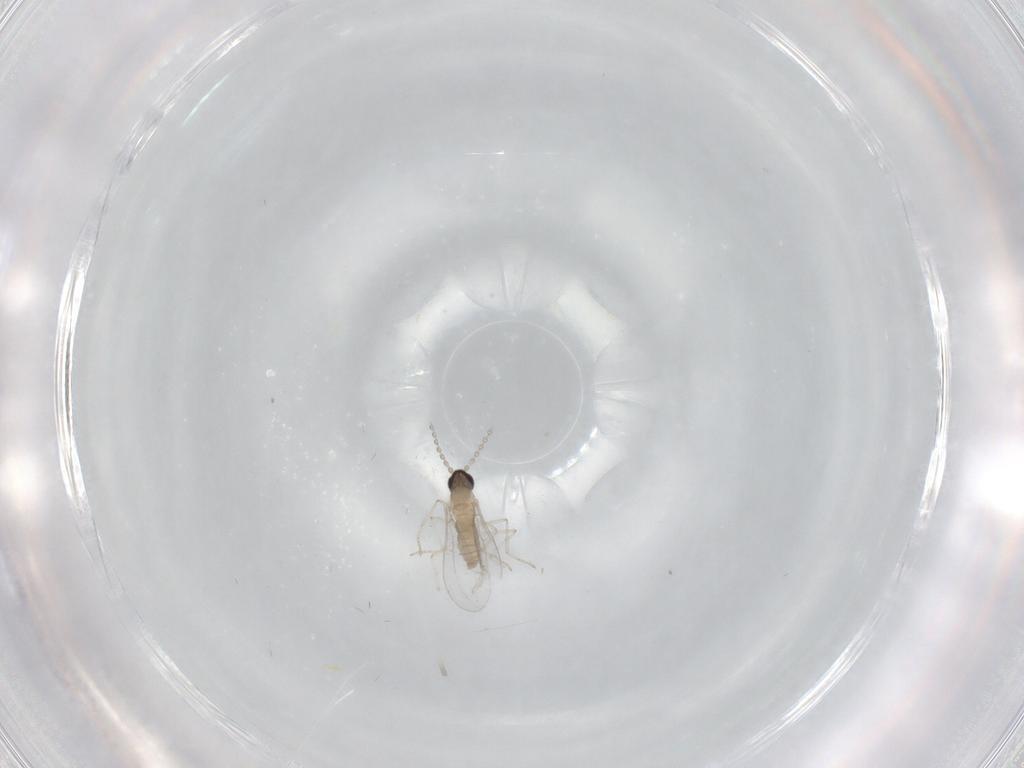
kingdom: Animalia
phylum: Arthropoda
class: Insecta
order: Diptera
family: Cecidomyiidae
